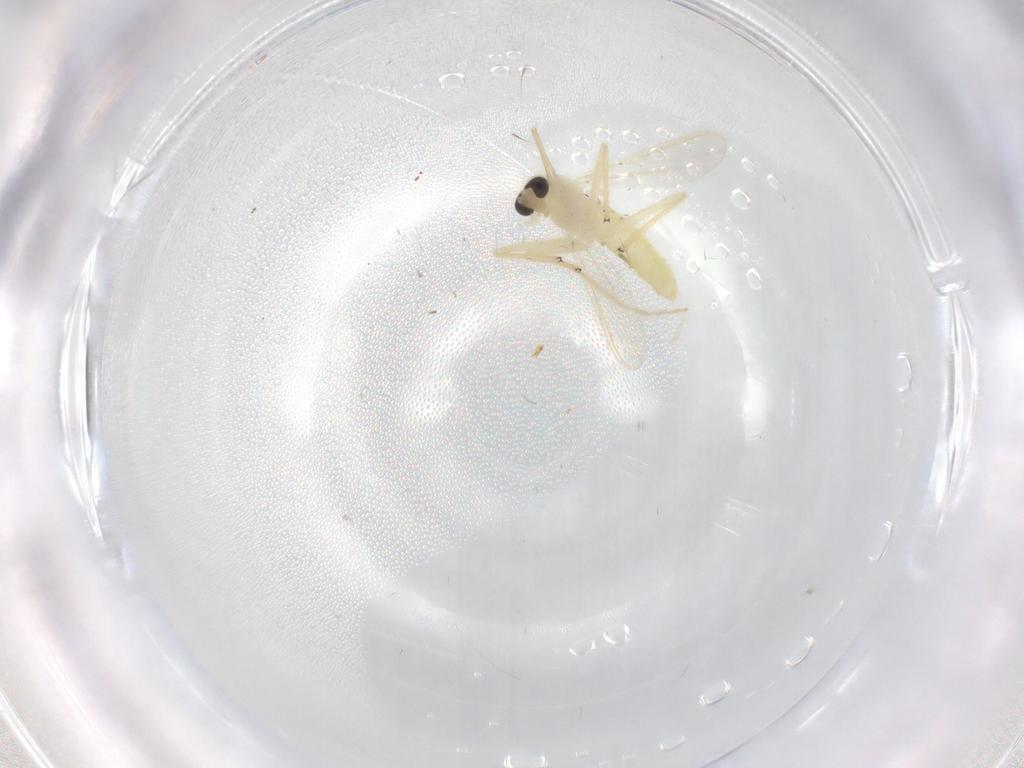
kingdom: Animalia
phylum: Arthropoda
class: Insecta
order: Diptera
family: Chironomidae
